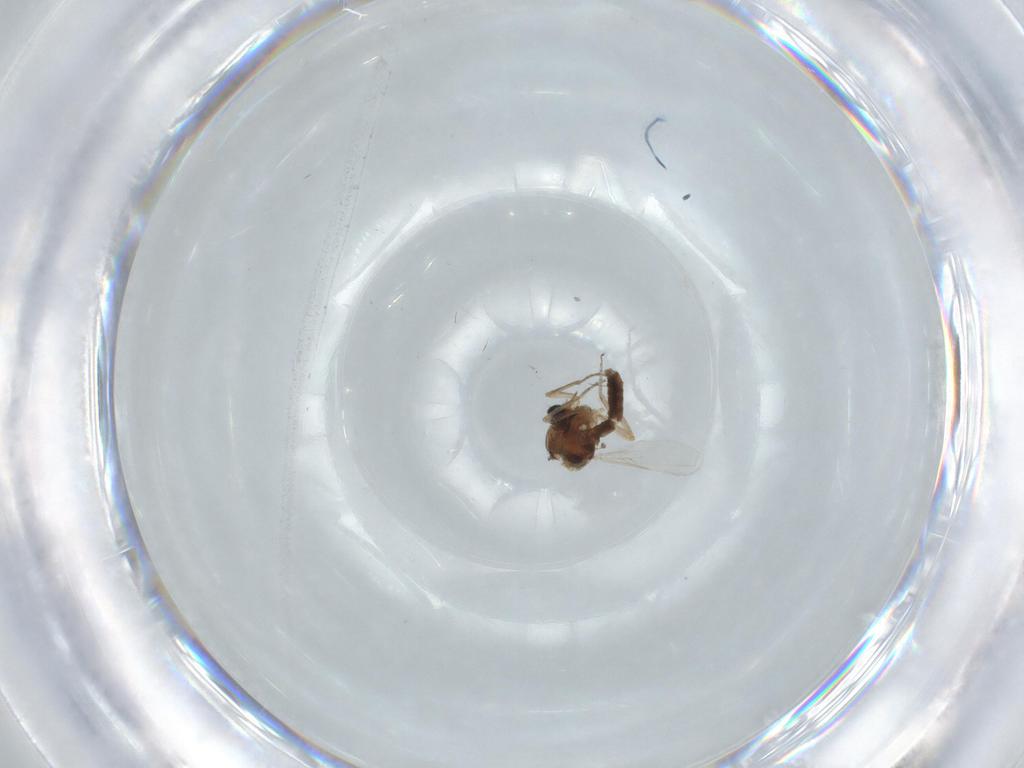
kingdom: Animalia
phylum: Arthropoda
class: Insecta
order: Diptera
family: Ceratopogonidae
